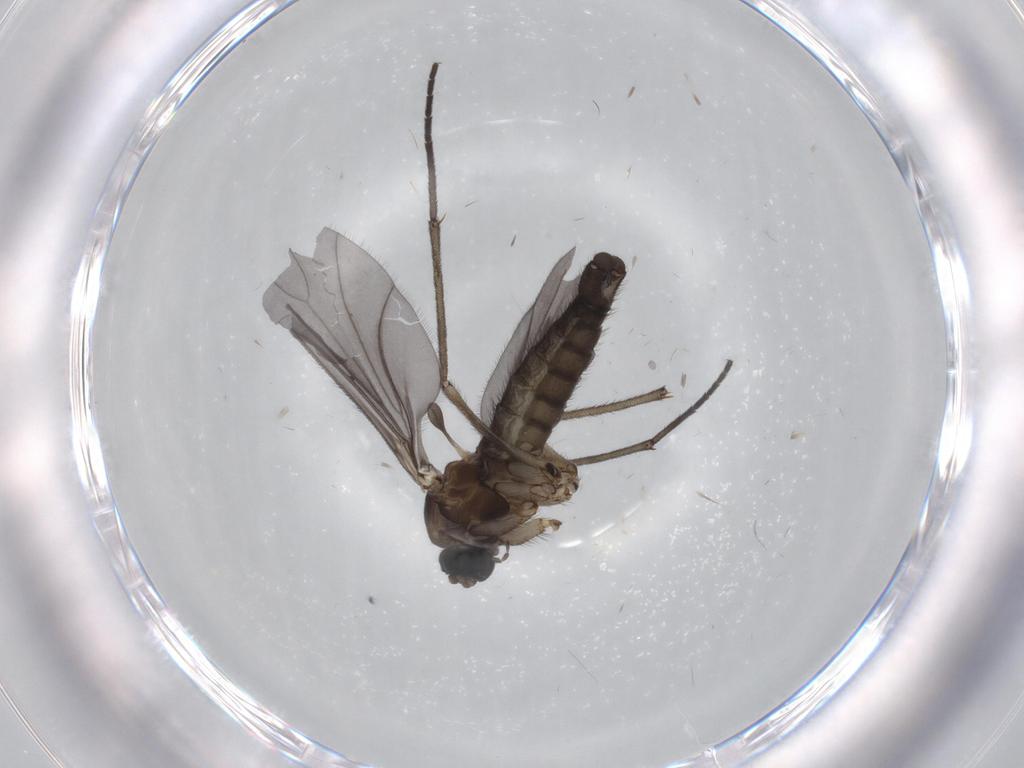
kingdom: Animalia
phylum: Arthropoda
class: Insecta
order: Diptera
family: Sciaridae
